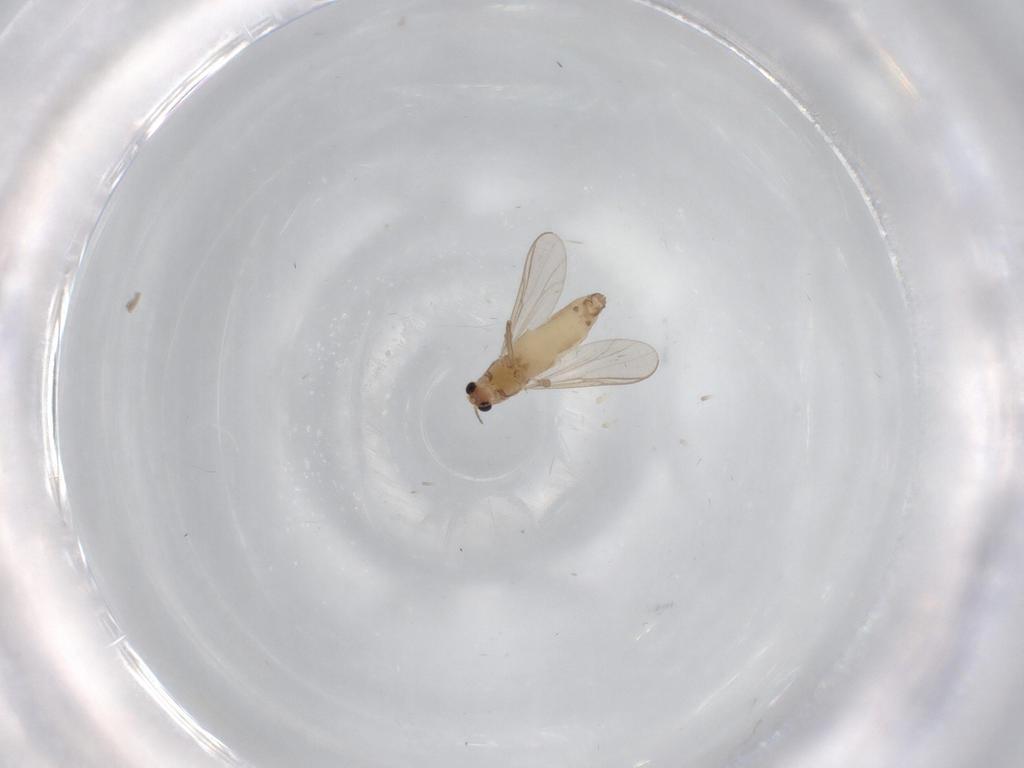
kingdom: Animalia
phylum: Arthropoda
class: Insecta
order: Diptera
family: Chironomidae
